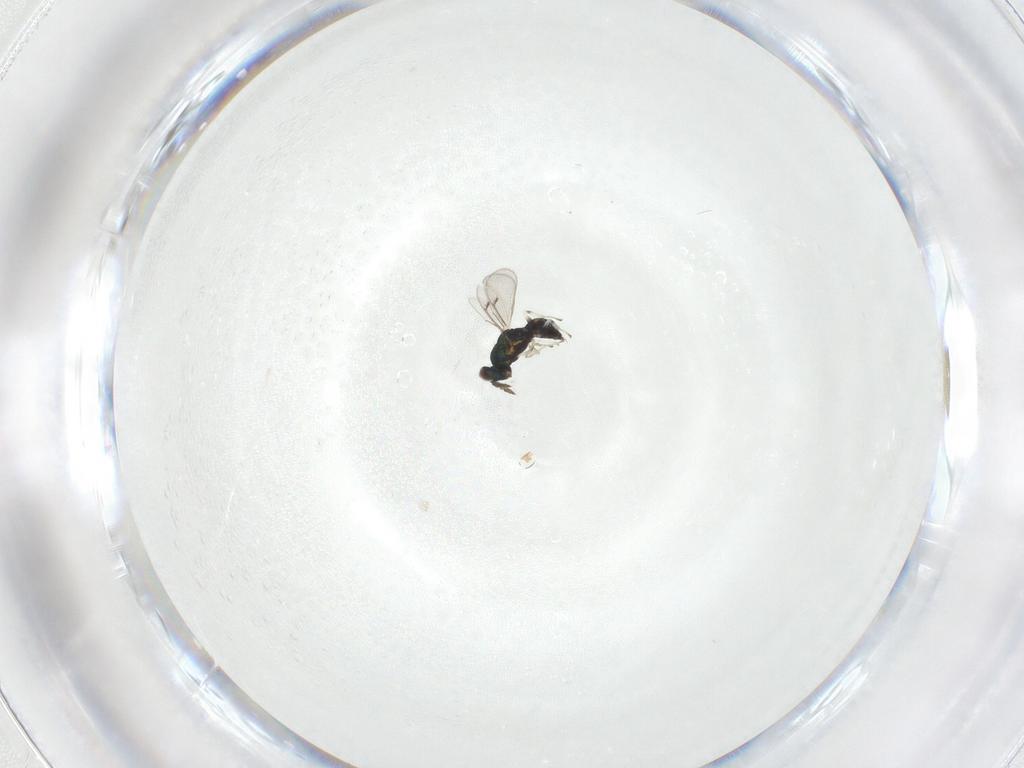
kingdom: Animalia
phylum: Arthropoda
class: Insecta
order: Hymenoptera
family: Eulophidae
